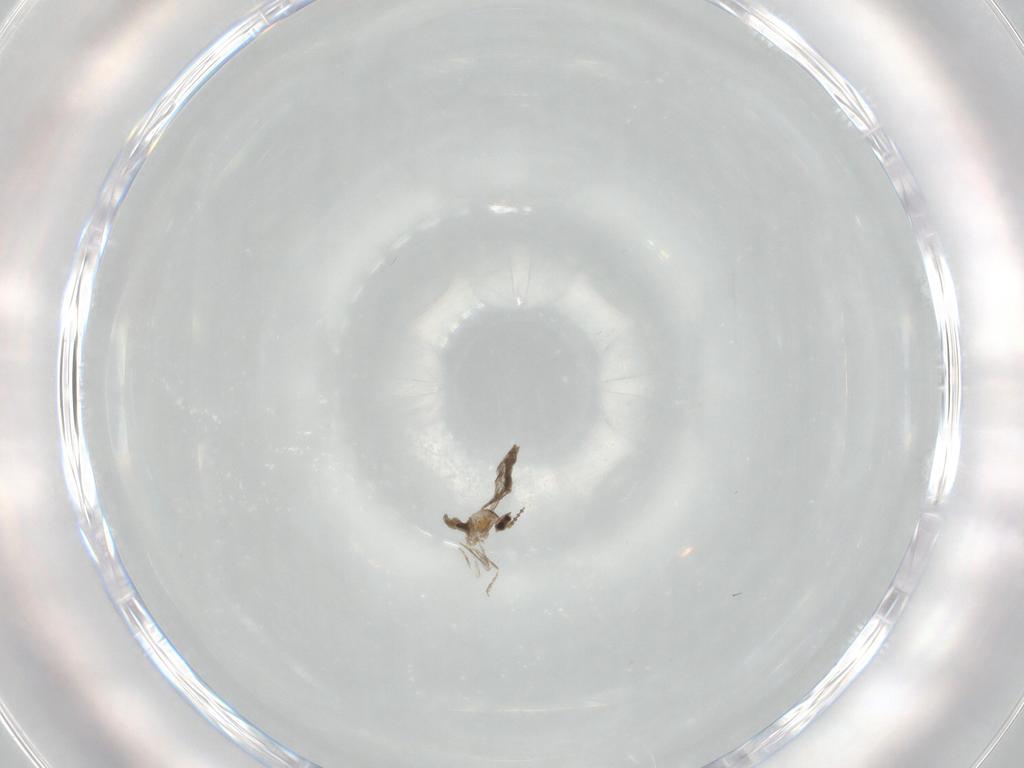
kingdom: Animalia
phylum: Arthropoda
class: Insecta
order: Diptera
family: Cecidomyiidae
